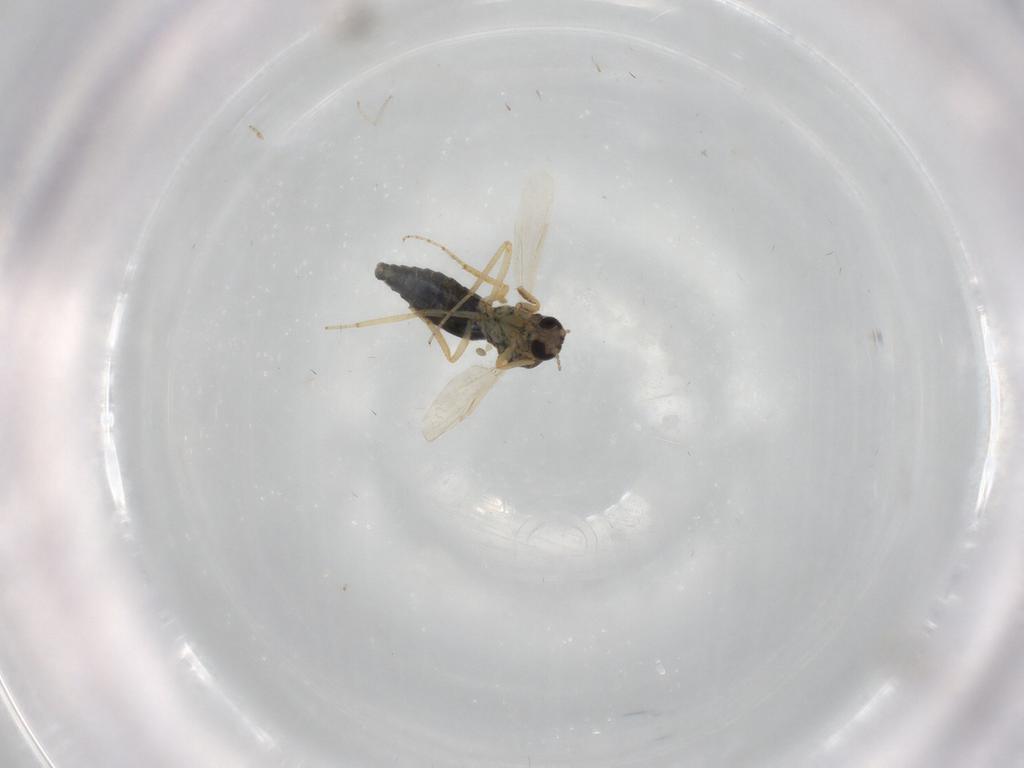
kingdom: Animalia
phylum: Arthropoda
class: Insecta
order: Diptera
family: Ceratopogonidae
